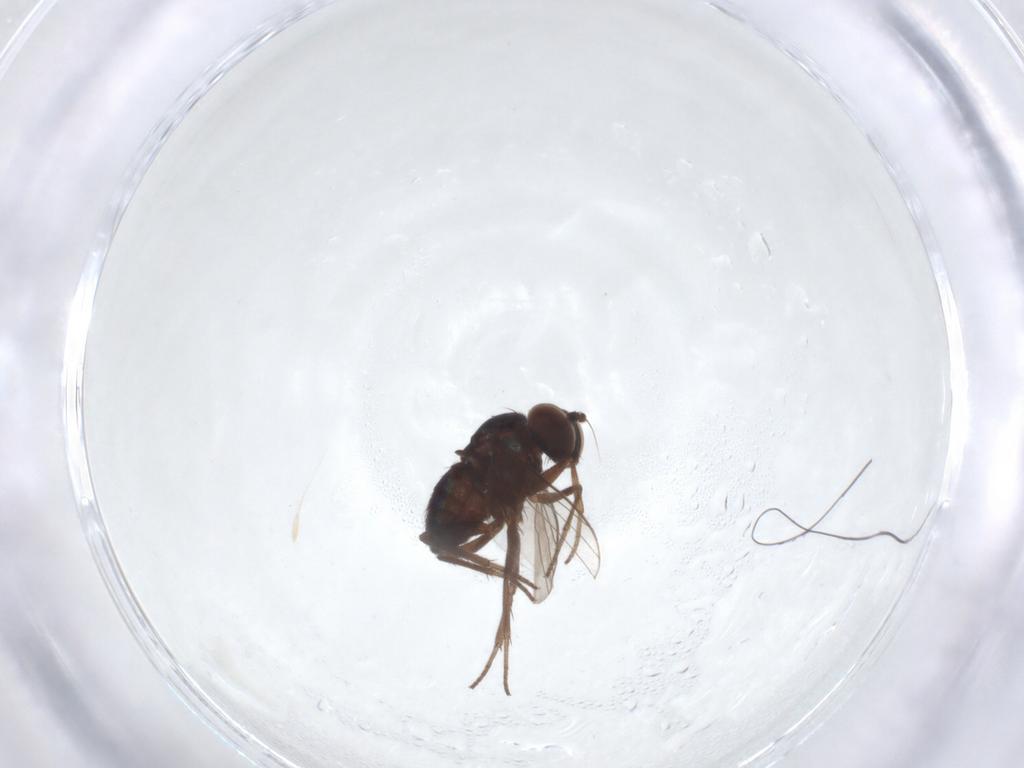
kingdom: Animalia
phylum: Arthropoda
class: Insecta
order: Diptera
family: Dolichopodidae
